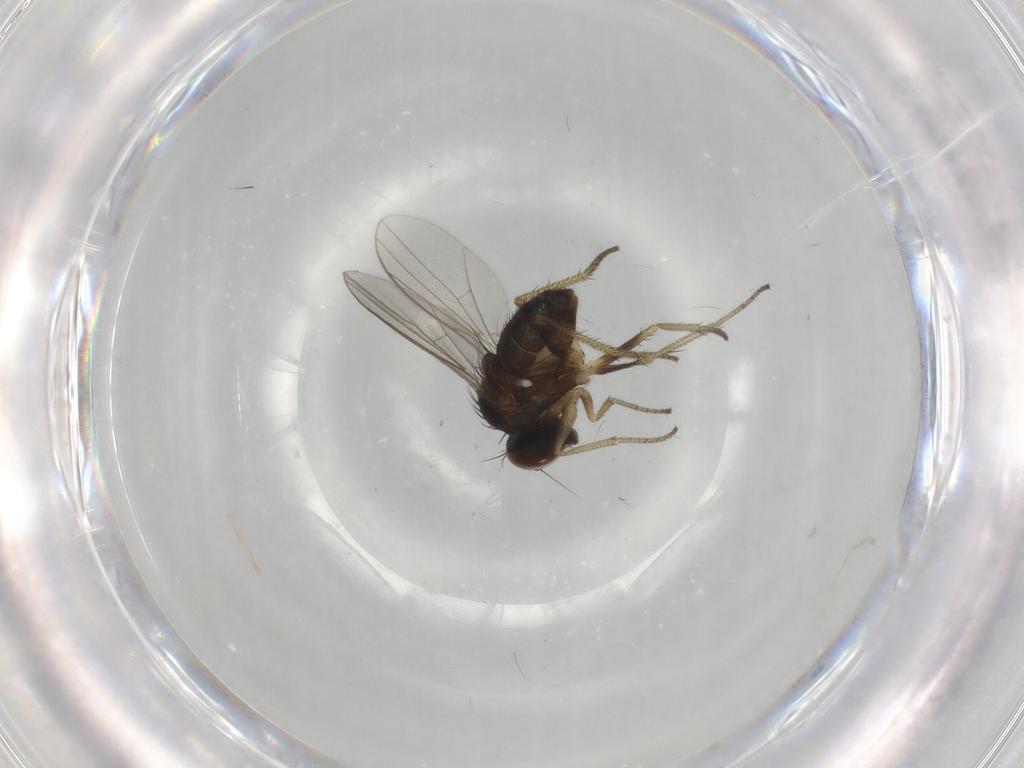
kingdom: Animalia
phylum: Arthropoda
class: Insecta
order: Diptera
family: Dolichopodidae
